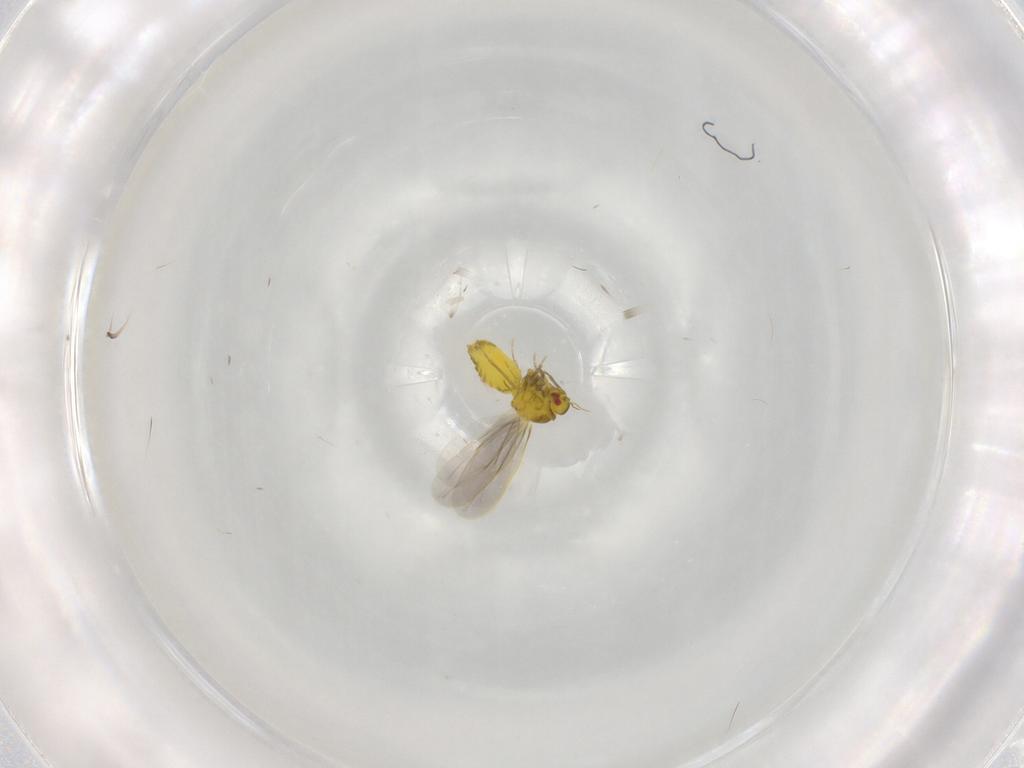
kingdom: Animalia
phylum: Arthropoda
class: Insecta
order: Hemiptera
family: Aleyrodidae
